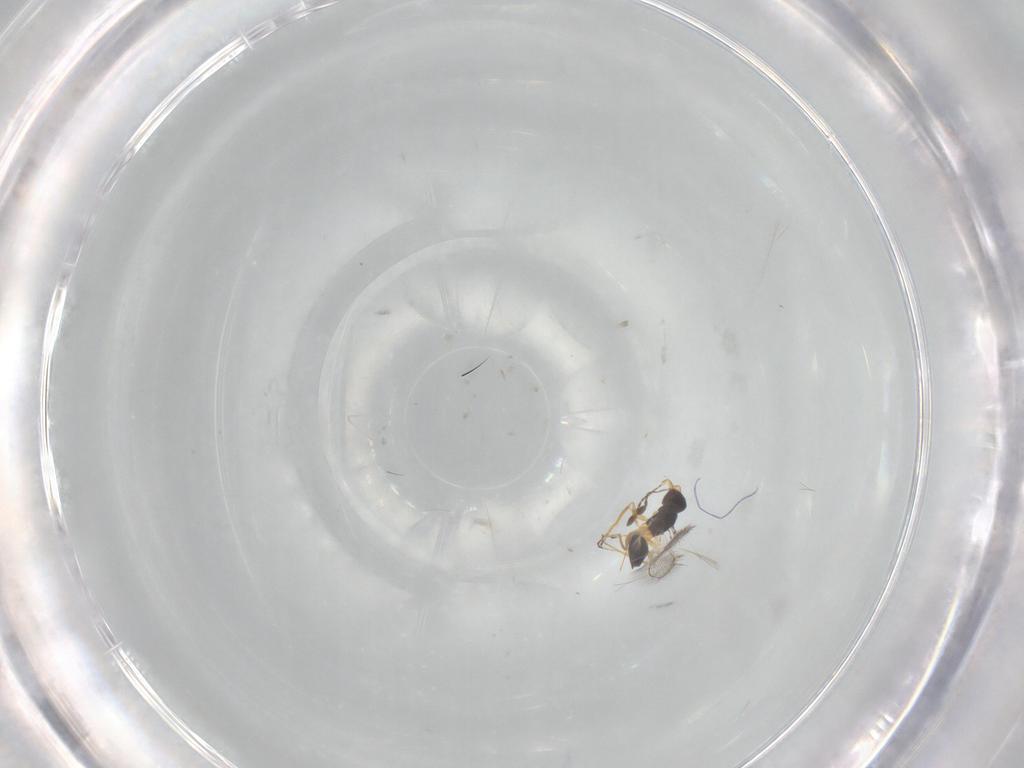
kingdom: Animalia
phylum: Arthropoda
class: Insecta
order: Hymenoptera
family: Mymaridae
